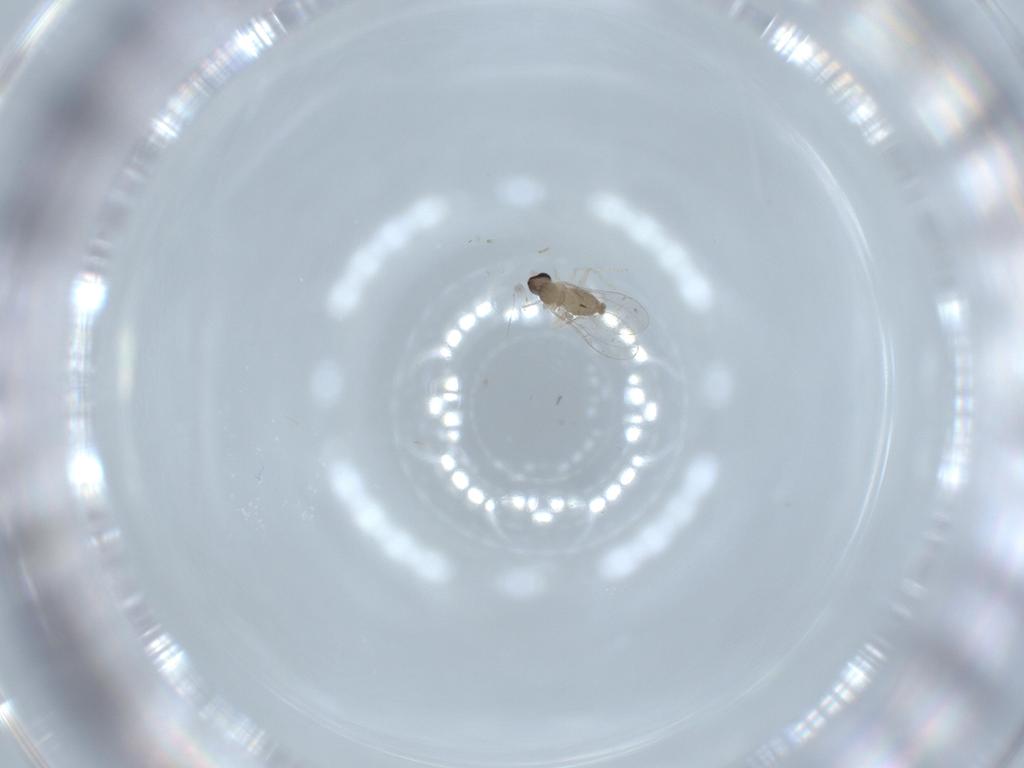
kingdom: Animalia
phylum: Arthropoda
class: Insecta
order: Diptera
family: Cecidomyiidae
